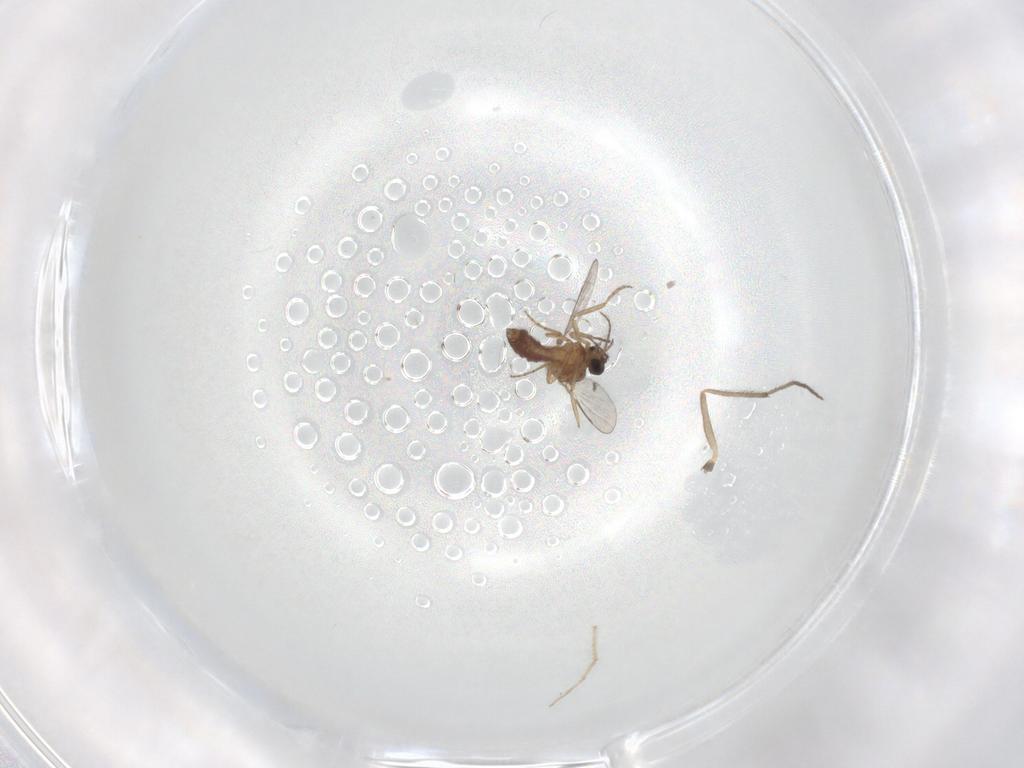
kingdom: Animalia
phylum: Arthropoda
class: Insecta
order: Diptera
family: Chironomidae
